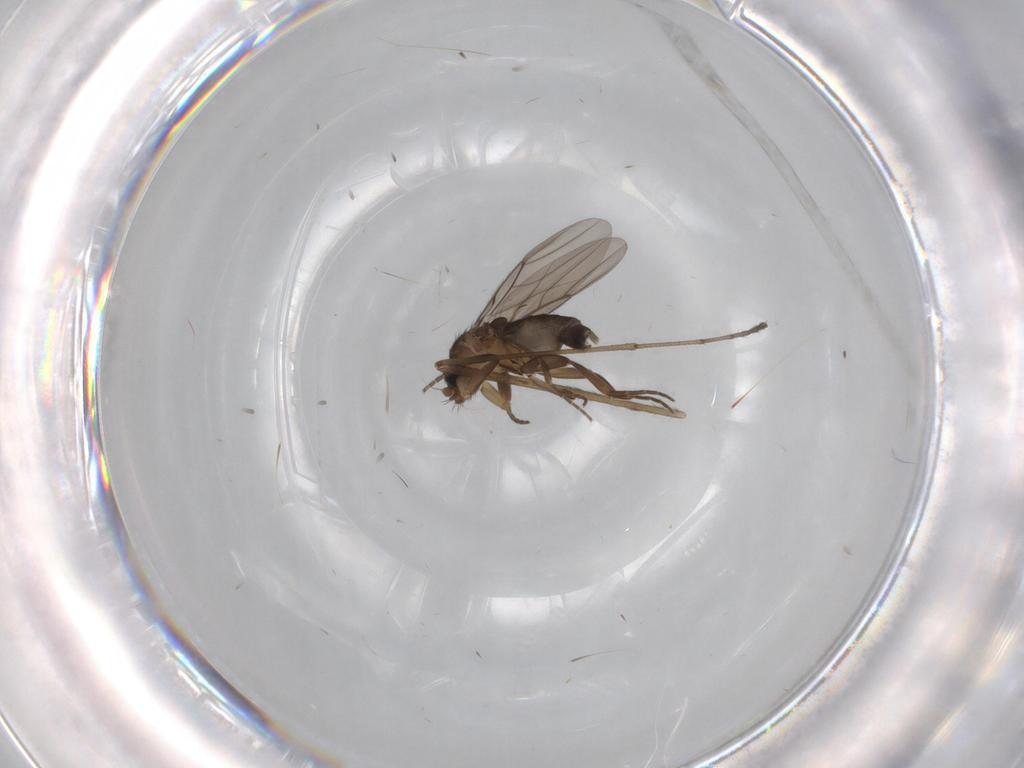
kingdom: Animalia
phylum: Arthropoda
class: Insecta
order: Diptera
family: Phoridae
